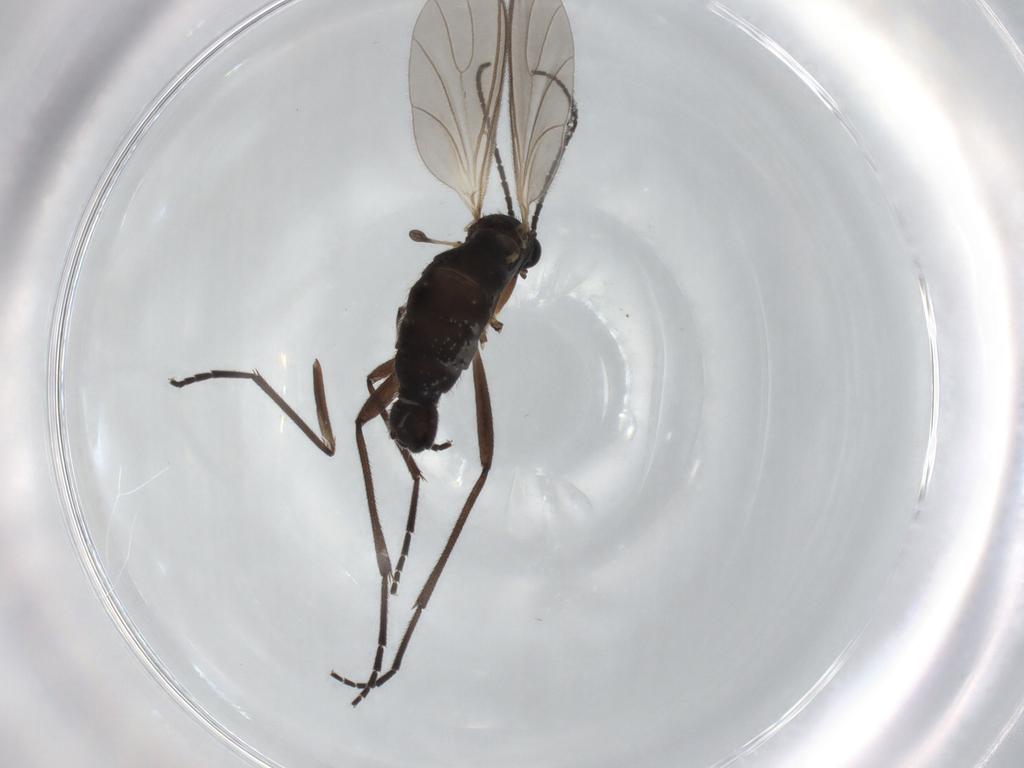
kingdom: Animalia
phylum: Arthropoda
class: Insecta
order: Diptera
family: Sciaridae
